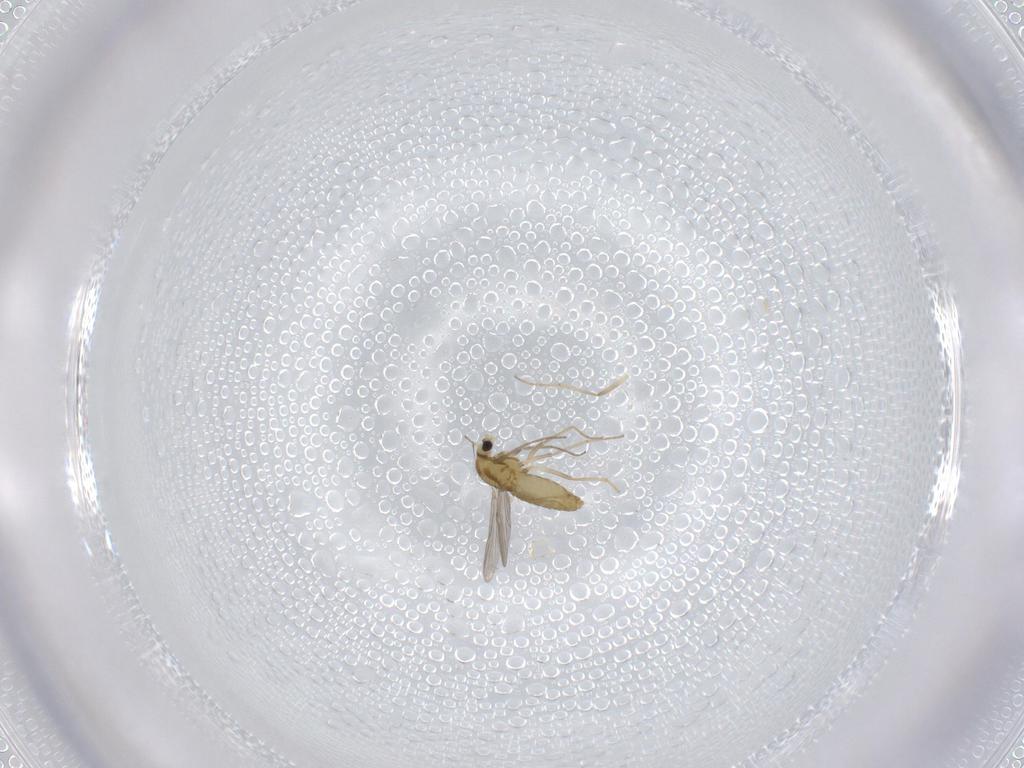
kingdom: Animalia
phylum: Arthropoda
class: Insecta
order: Diptera
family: Chironomidae
